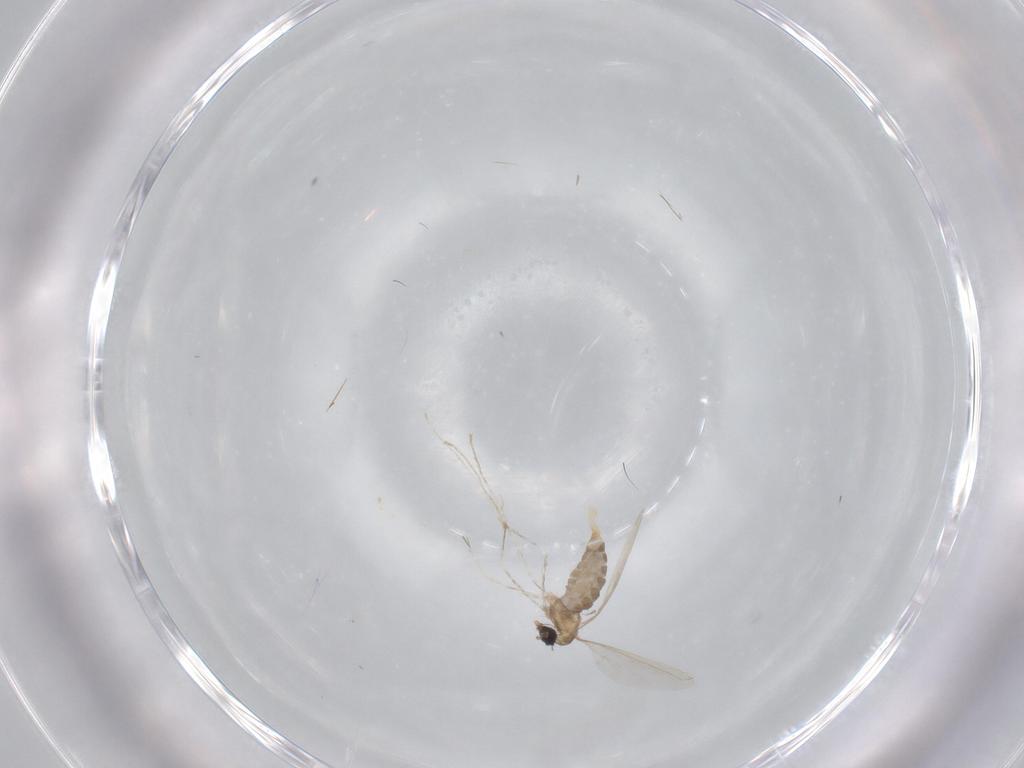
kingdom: Animalia
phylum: Arthropoda
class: Insecta
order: Diptera
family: Cecidomyiidae
